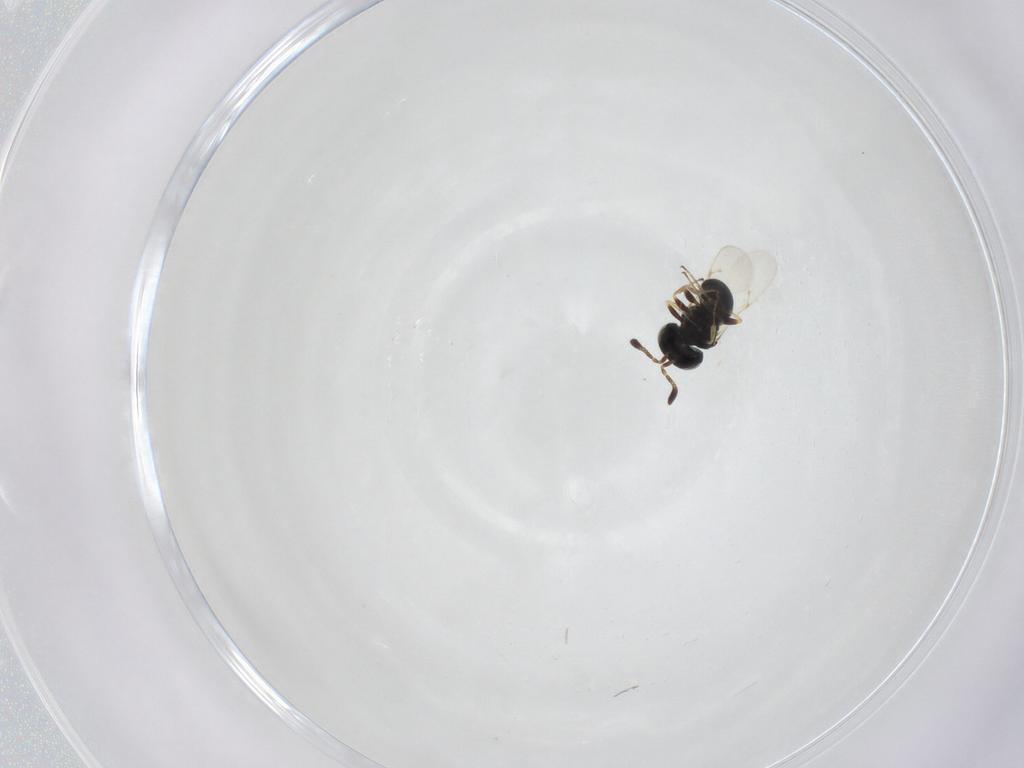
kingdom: Animalia
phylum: Arthropoda
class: Insecta
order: Hymenoptera
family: Scelionidae
